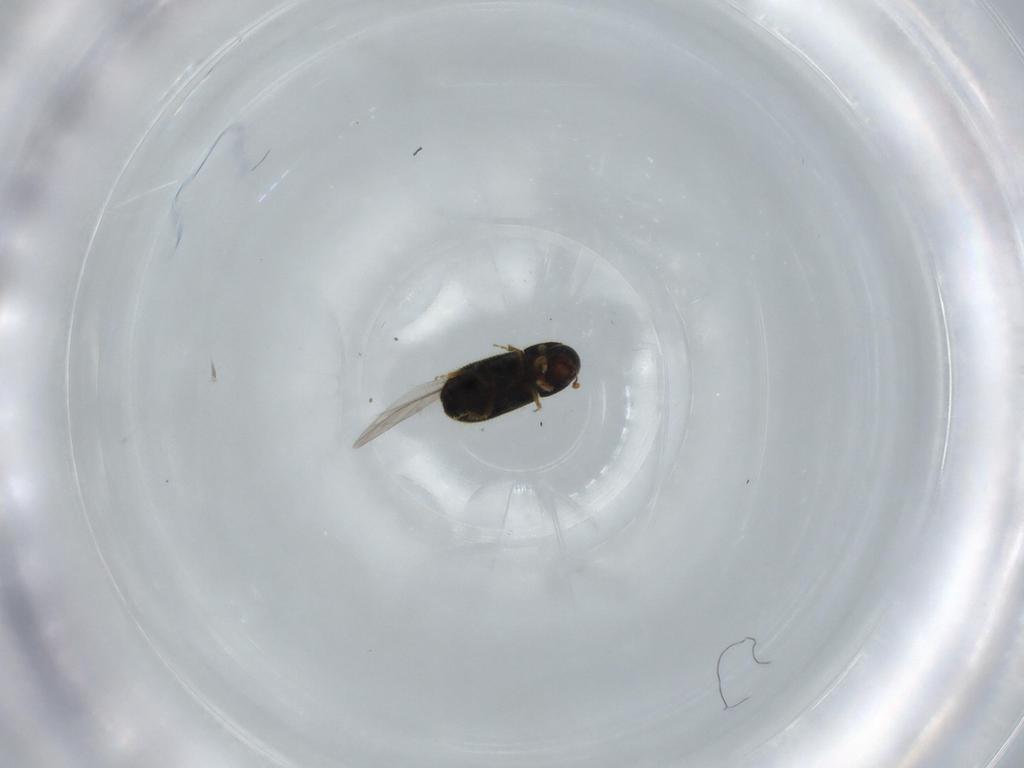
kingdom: Animalia
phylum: Arthropoda
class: Insecta
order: Coleoptera
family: Curculionidae
